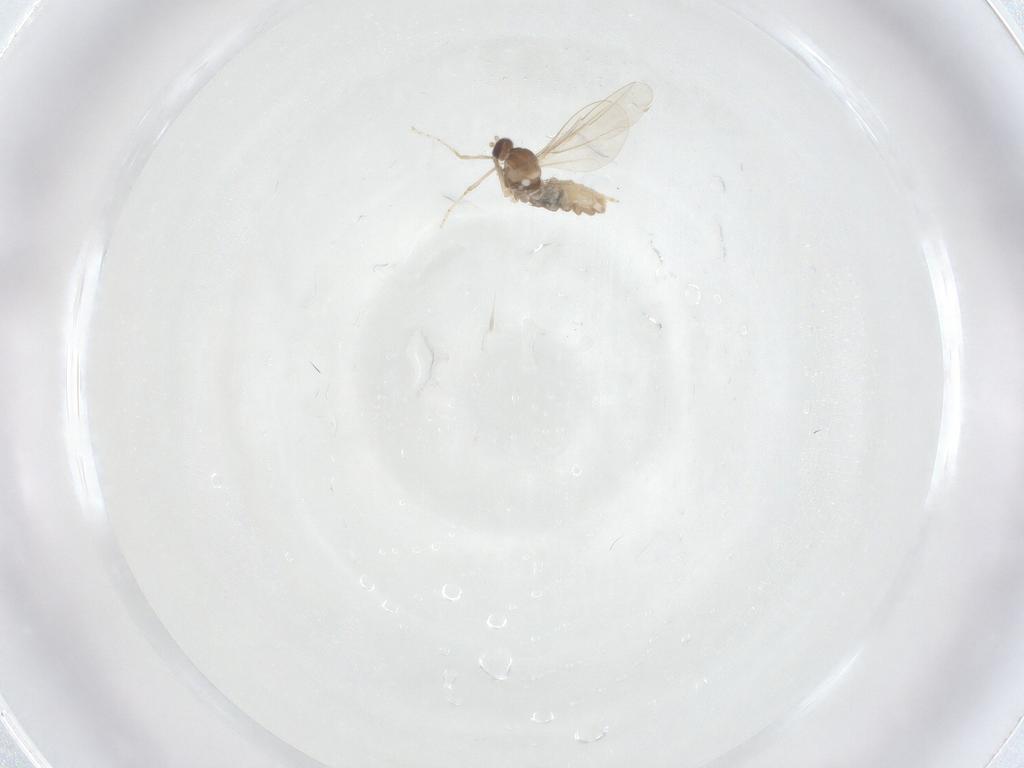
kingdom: Animalia
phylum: Arthropoda
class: Insecta
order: Diptera
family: Cecidomyiidae
